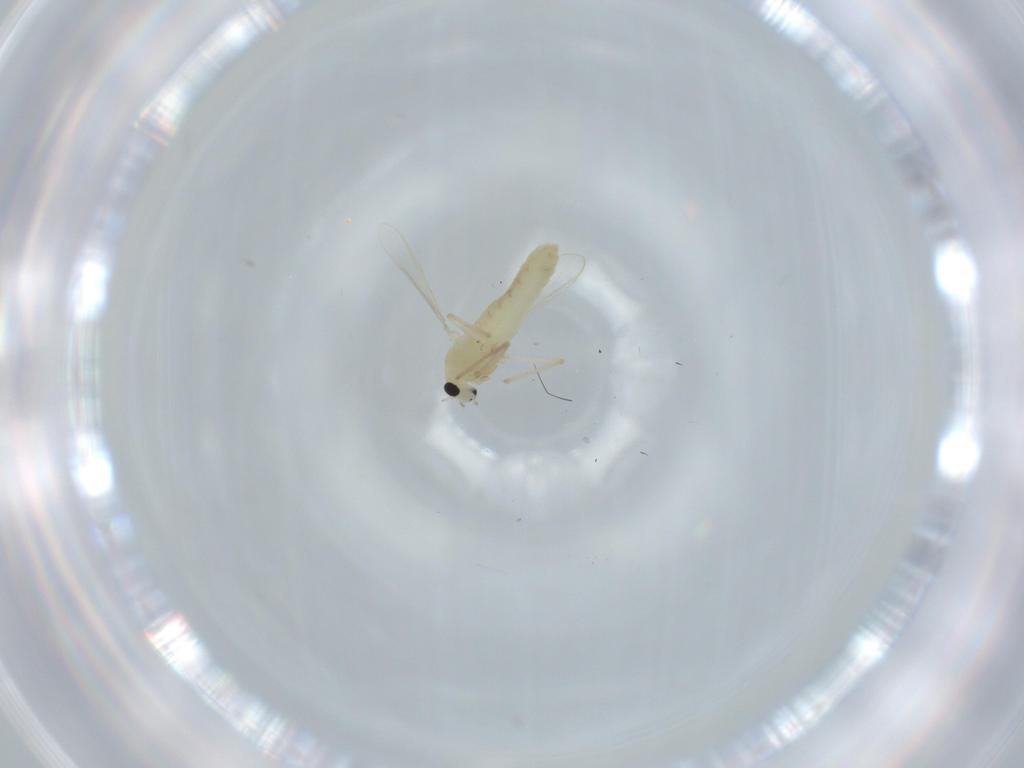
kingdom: Animalia
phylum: Arthropoda
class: Insecta
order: Diptera
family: Chironomidae
